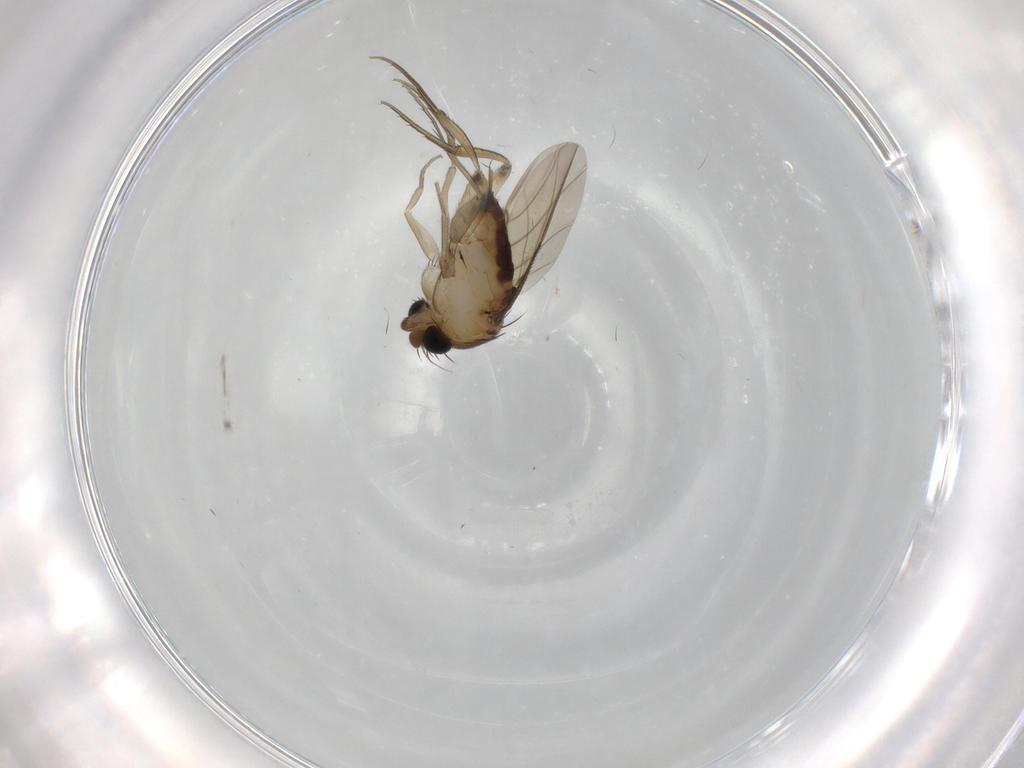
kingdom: Animalia
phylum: Arthropoda
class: Insecta
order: Diptera
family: Phoridae
